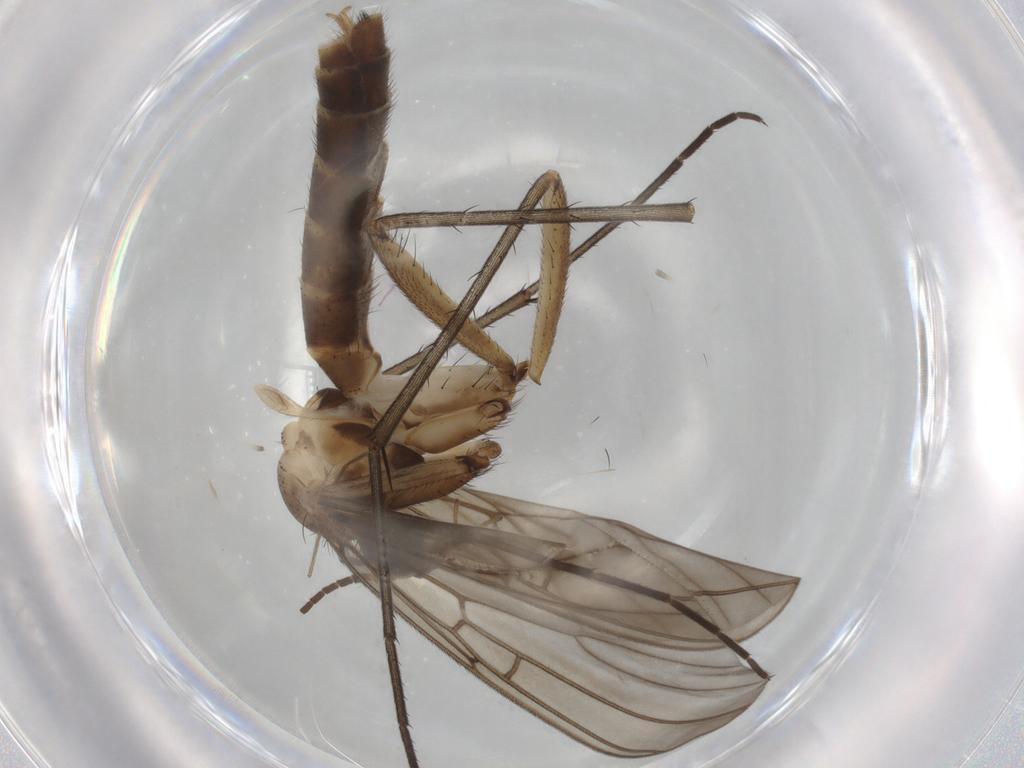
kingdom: Animalia
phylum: Arthropoda
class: Insecta
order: Diptera
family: Mycetophilidae
